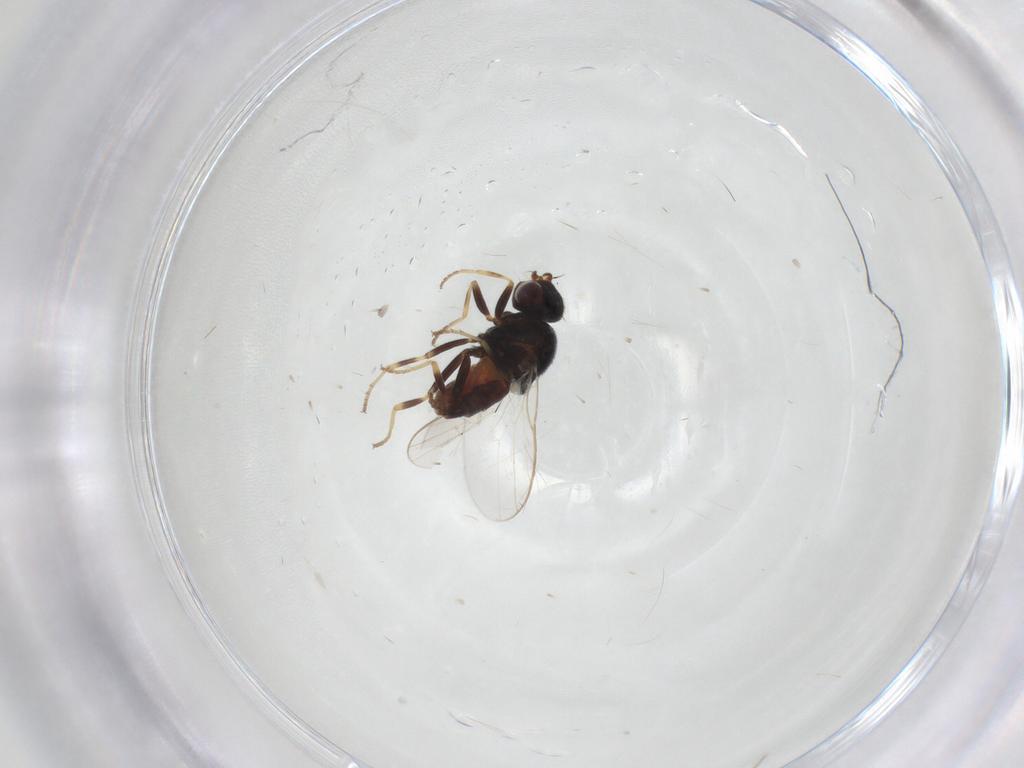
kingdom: Animalia
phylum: Arthropoda
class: Insecta
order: Diptera
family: Chloropidae
